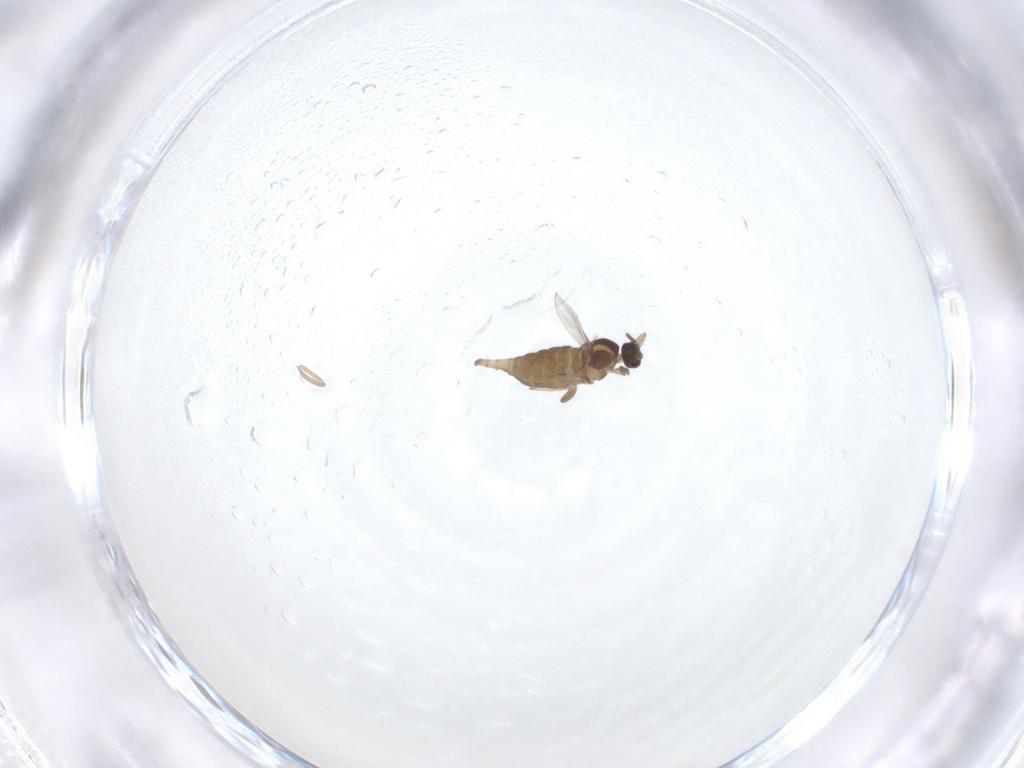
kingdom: Animalia
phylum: Arthropoda
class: Insecta
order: Diptera
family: Cecidomyiidae
